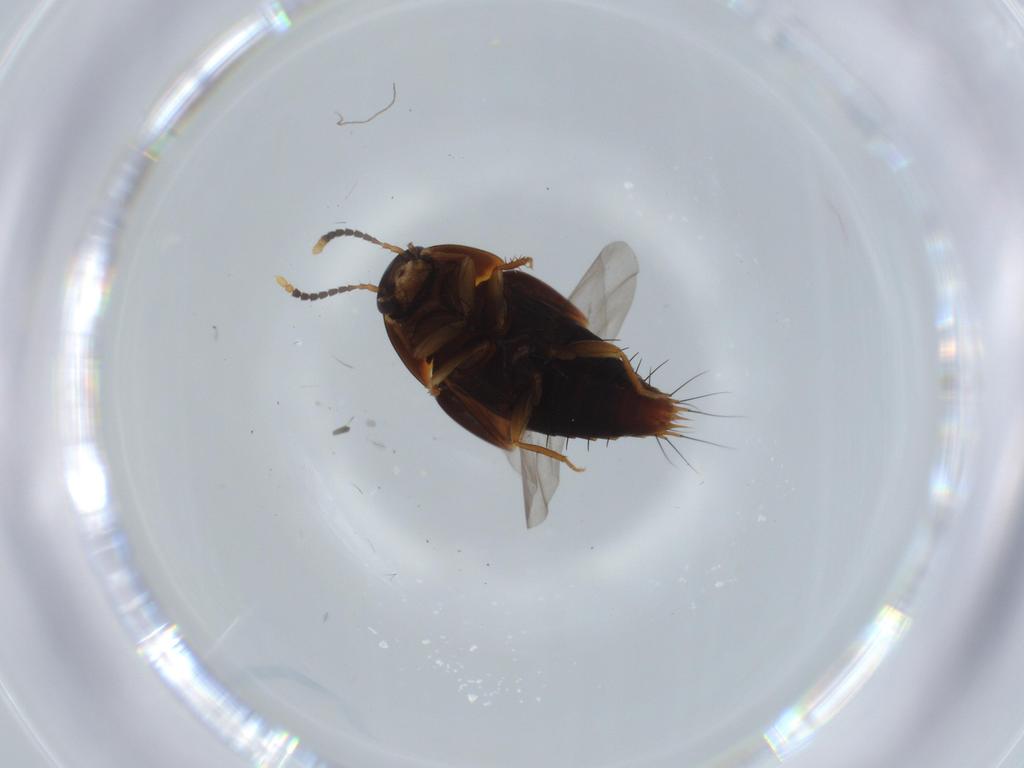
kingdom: Animalia
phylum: Arthropoda
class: Insecta
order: Coleoptera
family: Staphylinidae
